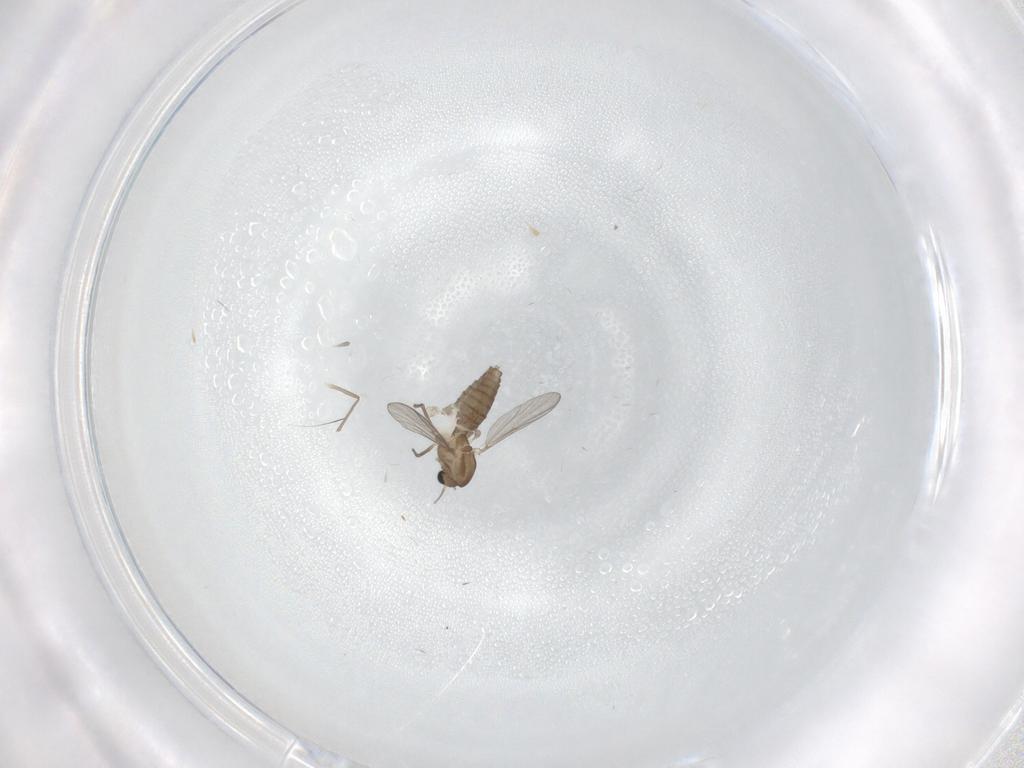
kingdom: Animalia
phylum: Arthropoda
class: Insecta
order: Diptera
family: Chironomidae
